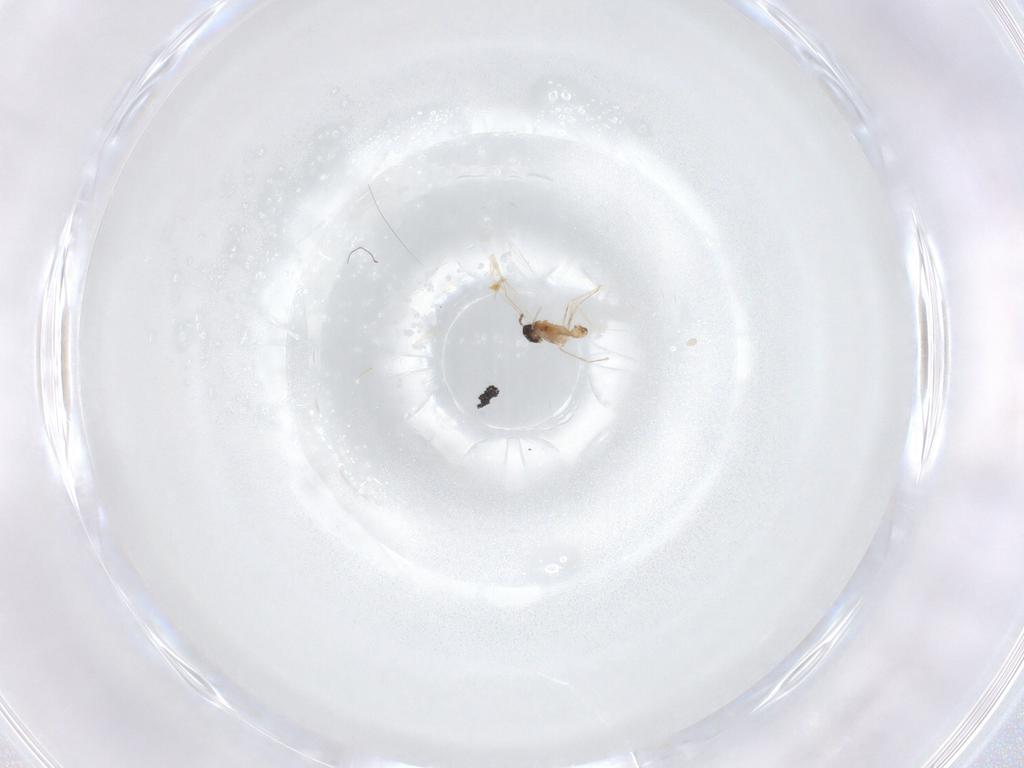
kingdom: Animalia
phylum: Arthropoda
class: Insecta
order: Diptera
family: Cecidomyiidae
